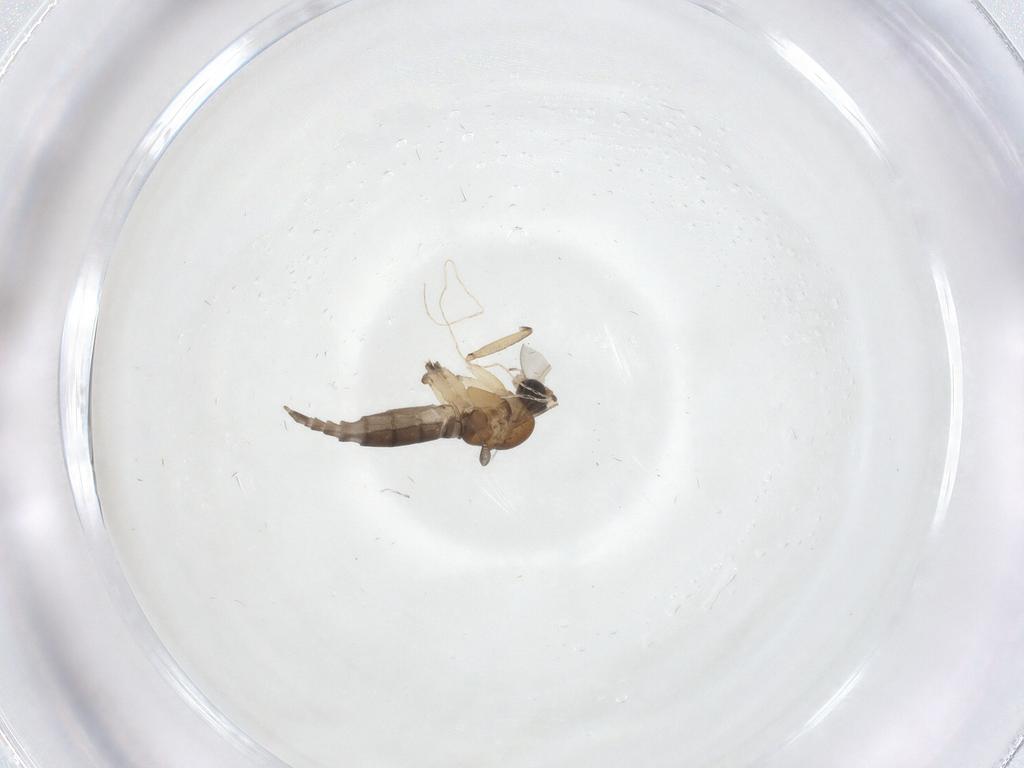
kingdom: Animalia
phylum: Arthropoda
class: Insecta
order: Diptera
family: Sciaridae
